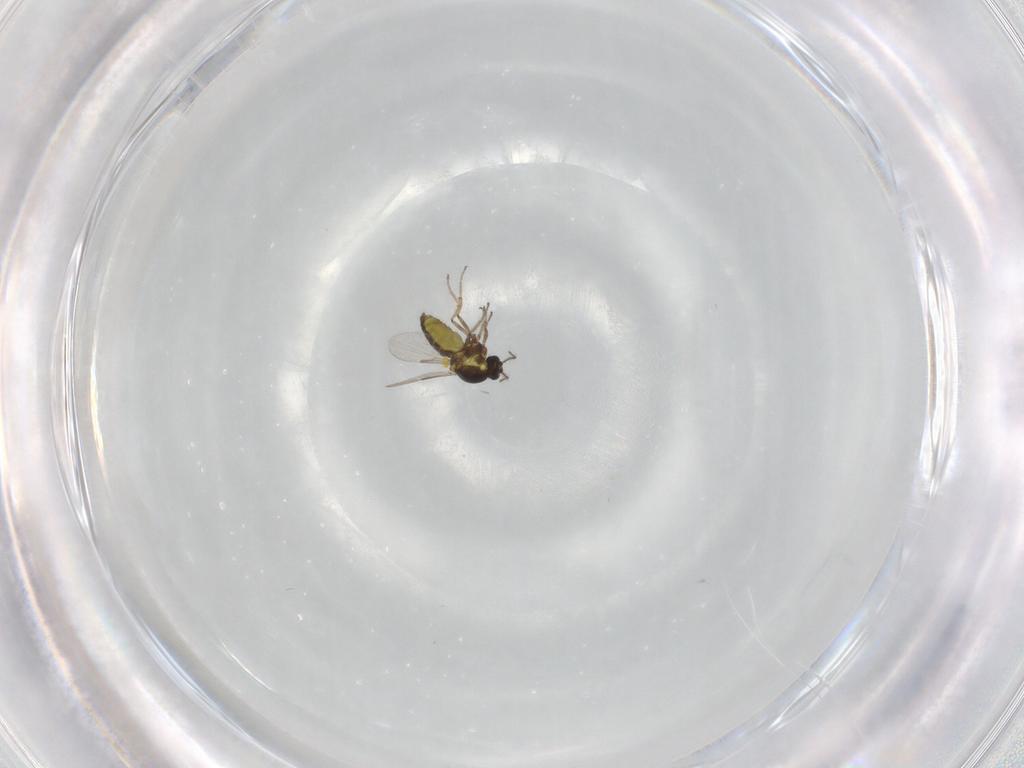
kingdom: Animalia
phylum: Arthropoda
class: Insecta
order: Diptera
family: Ceratopogonidae
